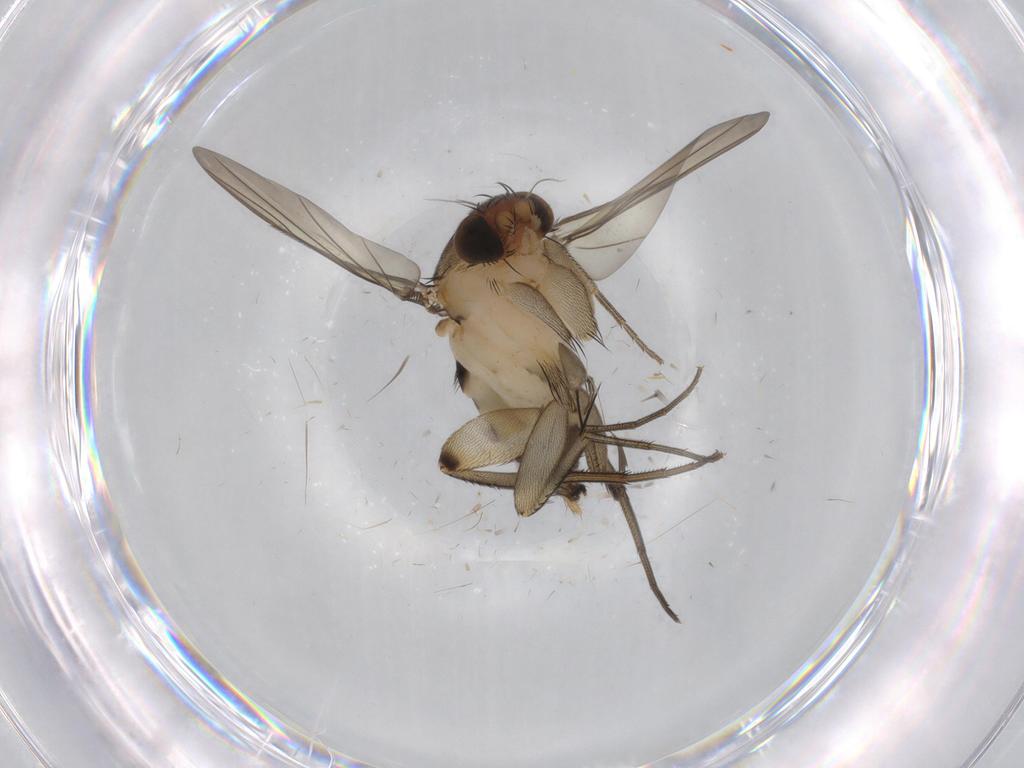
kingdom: Animalia
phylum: Arthropoda
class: Insecta
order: Diptera
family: Phoridae
